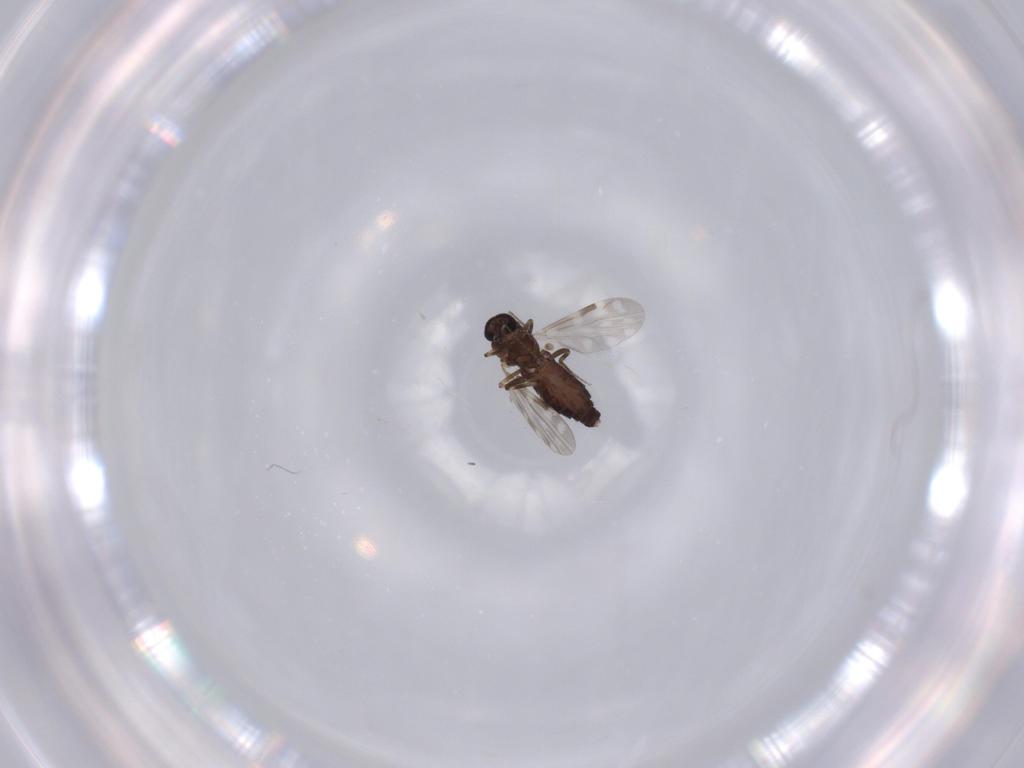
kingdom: Animalia
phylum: Arthropoda
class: Insecta
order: Diptera
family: Ceratopogonidae
